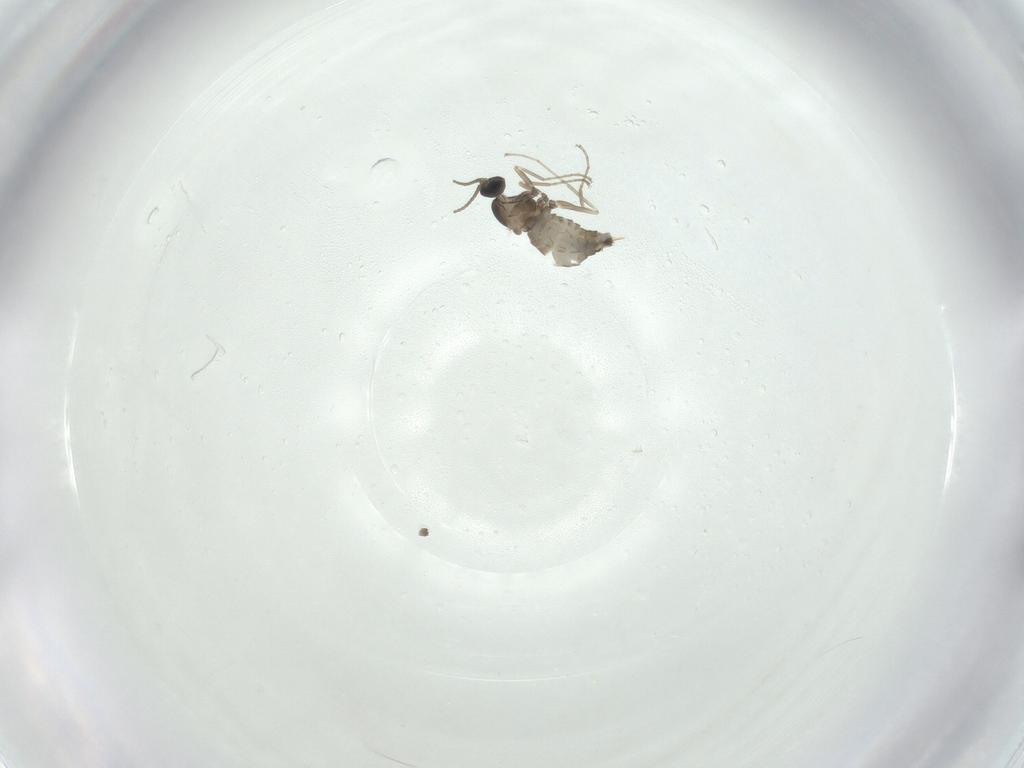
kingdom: Animalia
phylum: Arthropoda
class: Insecta
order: Diptera
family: Cecidomyiidae
